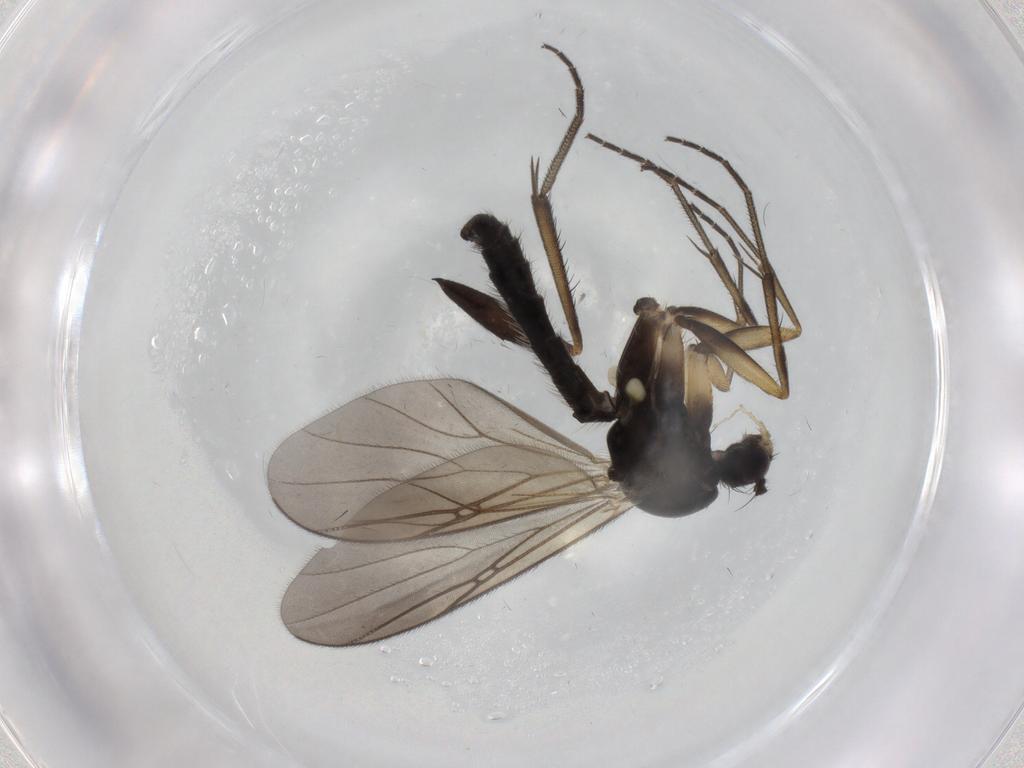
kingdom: Animalia
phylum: Arthropoda
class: Insecta
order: Diptera
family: Mycetophilidae
